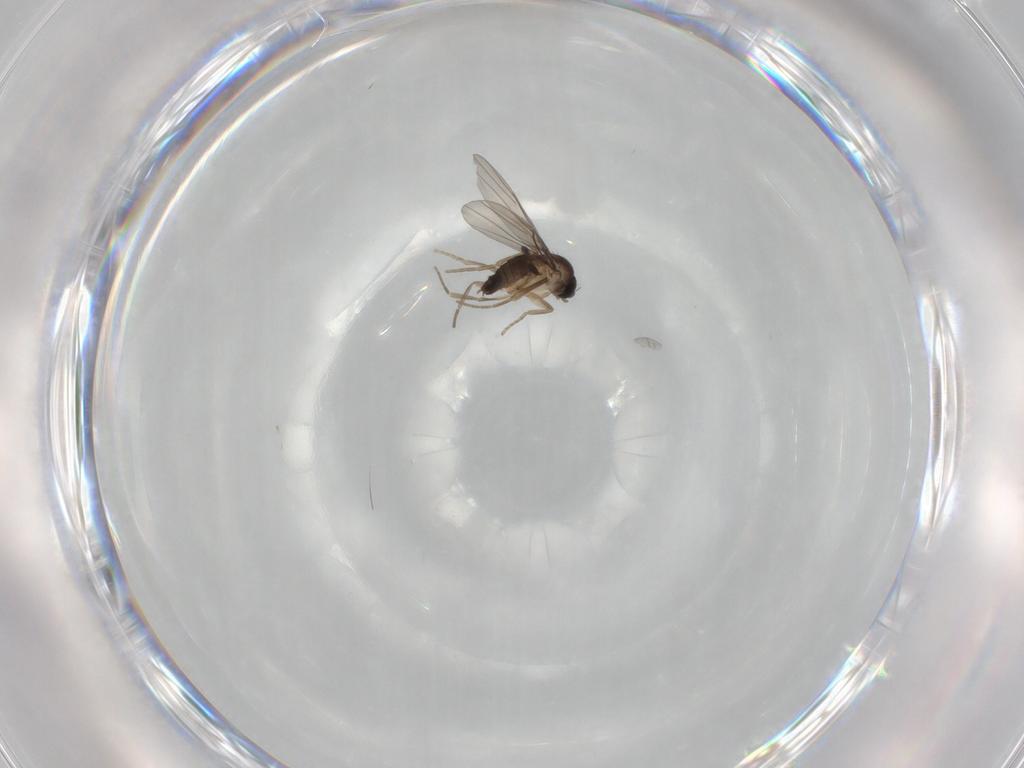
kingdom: Animalia
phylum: Arthropoda
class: Insecta
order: Diptera
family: Phoridae
